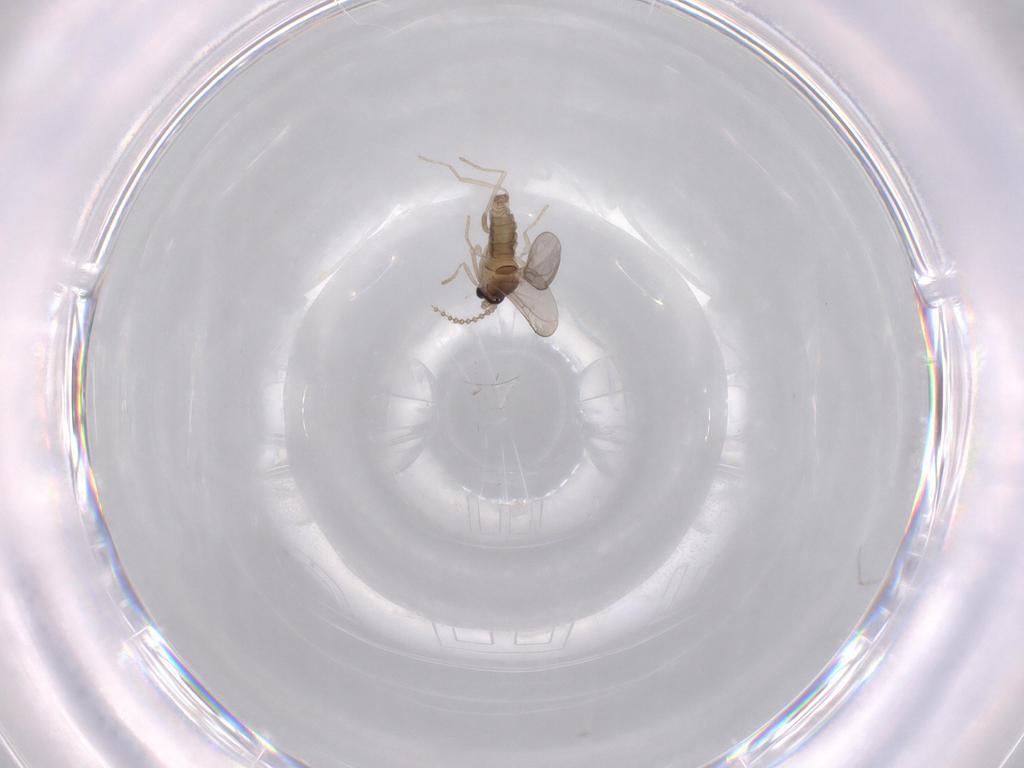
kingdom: Animalia
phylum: Arthropoda
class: Insecta
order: Diptera
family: Cecidomyiidae
